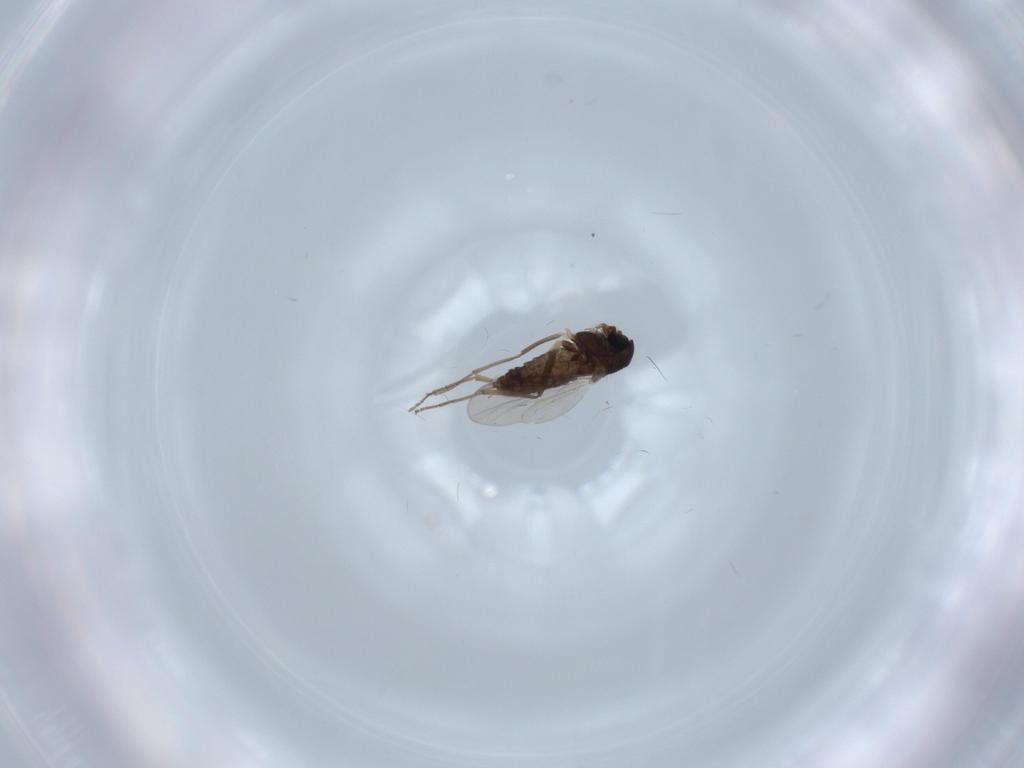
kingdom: Animalia
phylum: Arthropoda
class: Insecta
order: Diptera
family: Chironomidae
